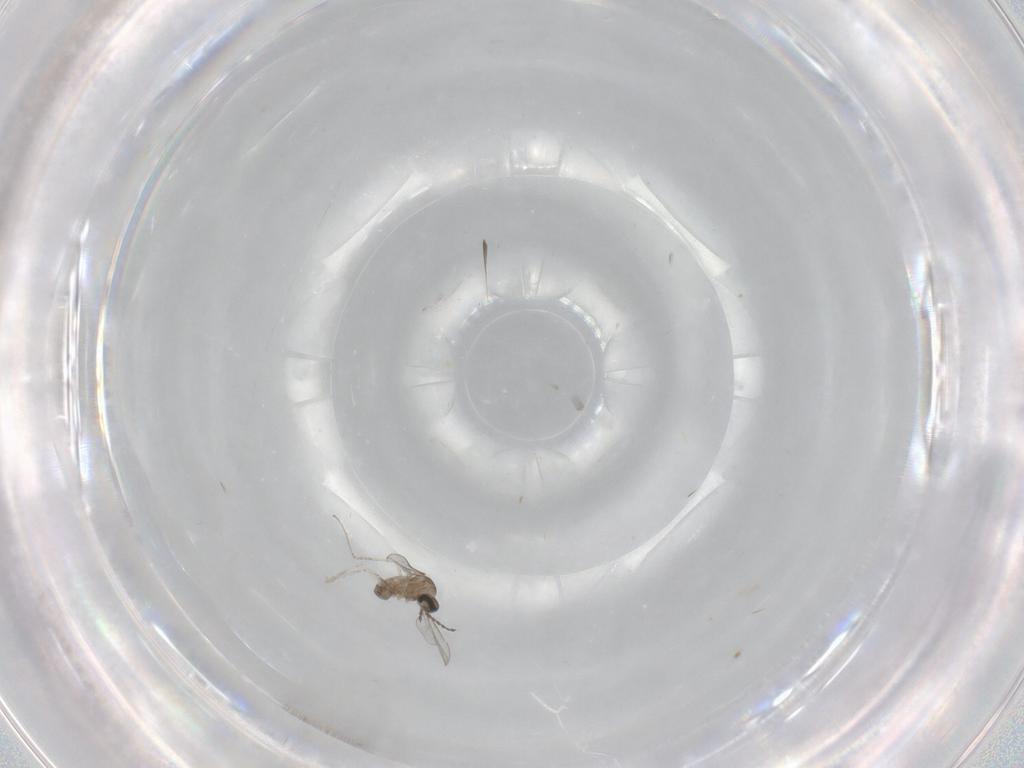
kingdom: Animalia
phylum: Arthropoda
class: Insecta
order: Diptera
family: Cecidomyiidae
